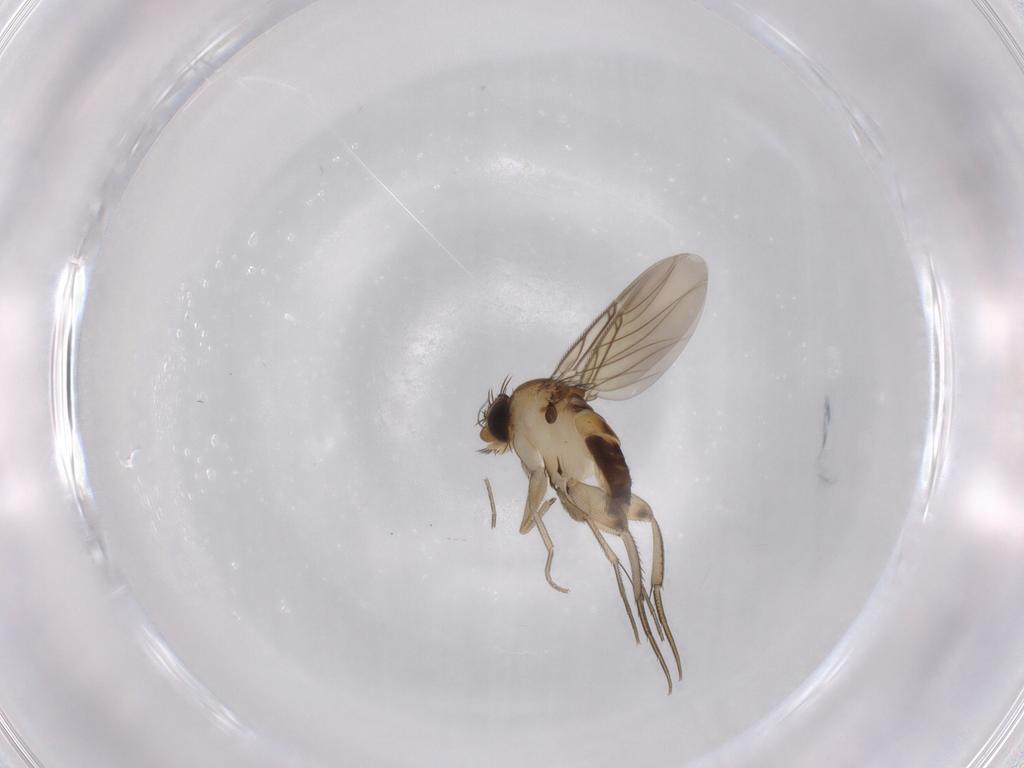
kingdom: Animalia
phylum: Arthropoda
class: Insecta
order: Diptera
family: Phoridae
